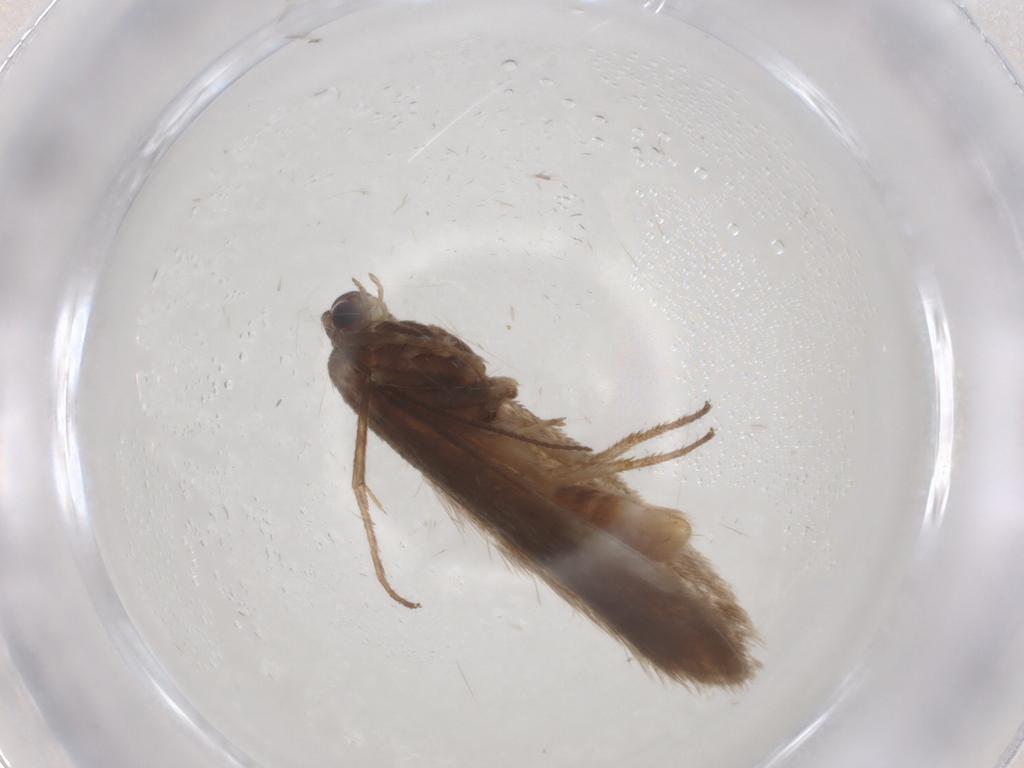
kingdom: Animalia
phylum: Arthropoda
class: Insecta
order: Lepidoptera
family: Limacodidae
